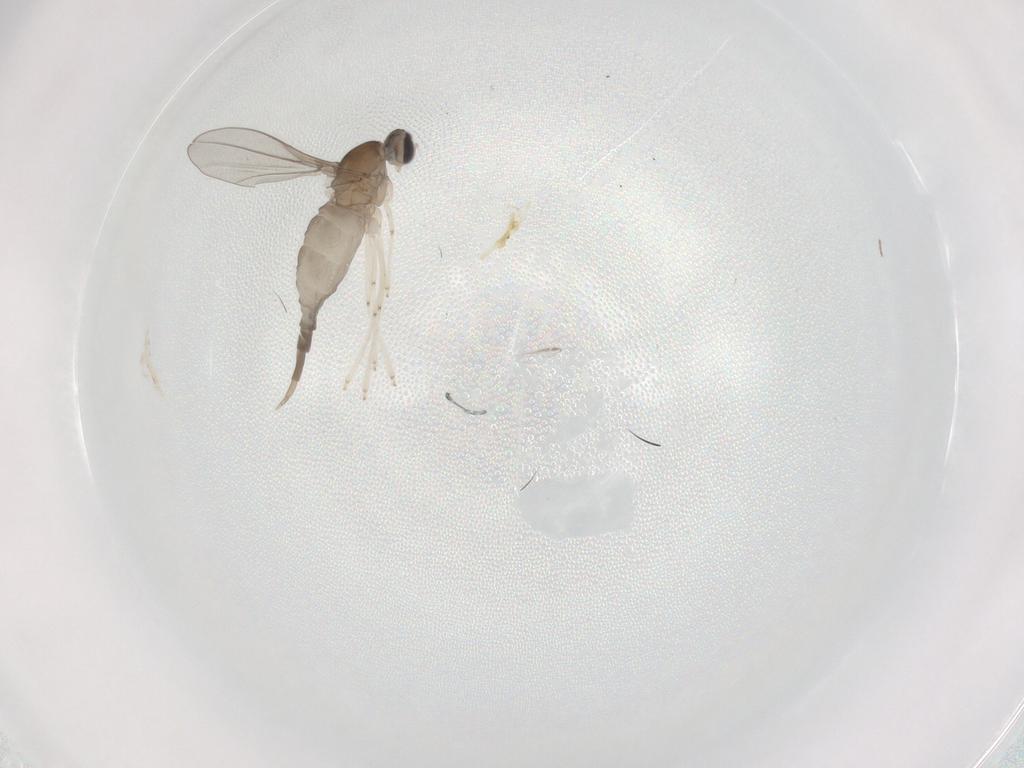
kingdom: Animalia
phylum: Arthropoda
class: Insecta
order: Diptera
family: Cecidomyiidae
